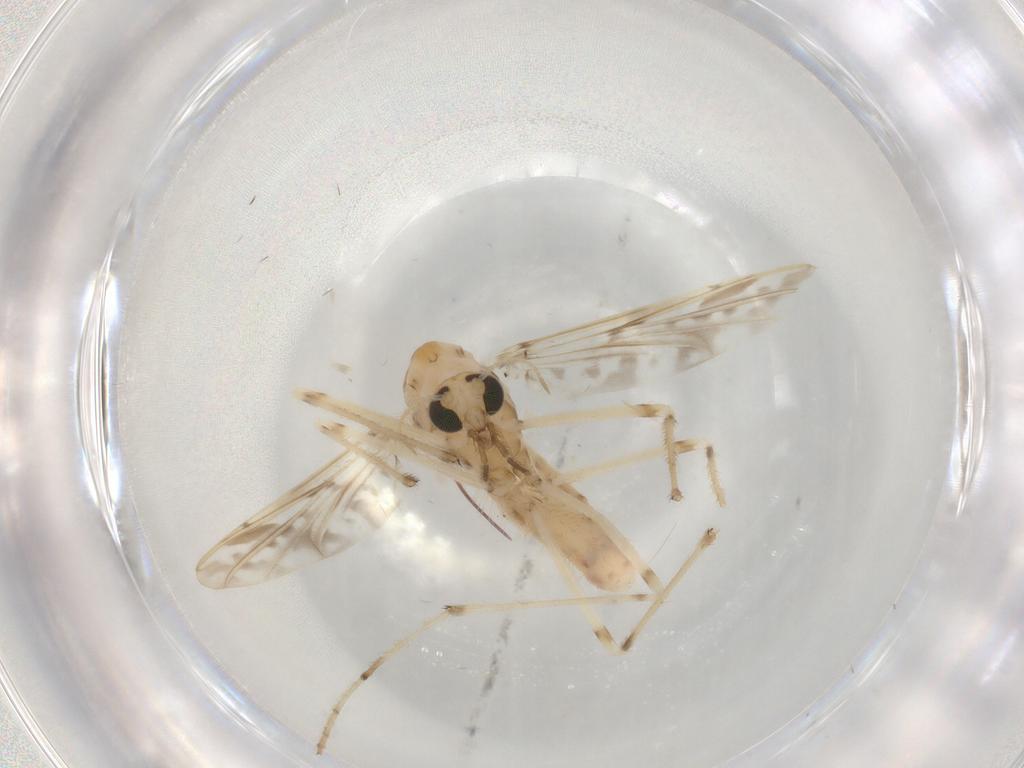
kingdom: Animalia
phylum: Arthropoda
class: Insecta
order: Diptera
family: Chironomidae
